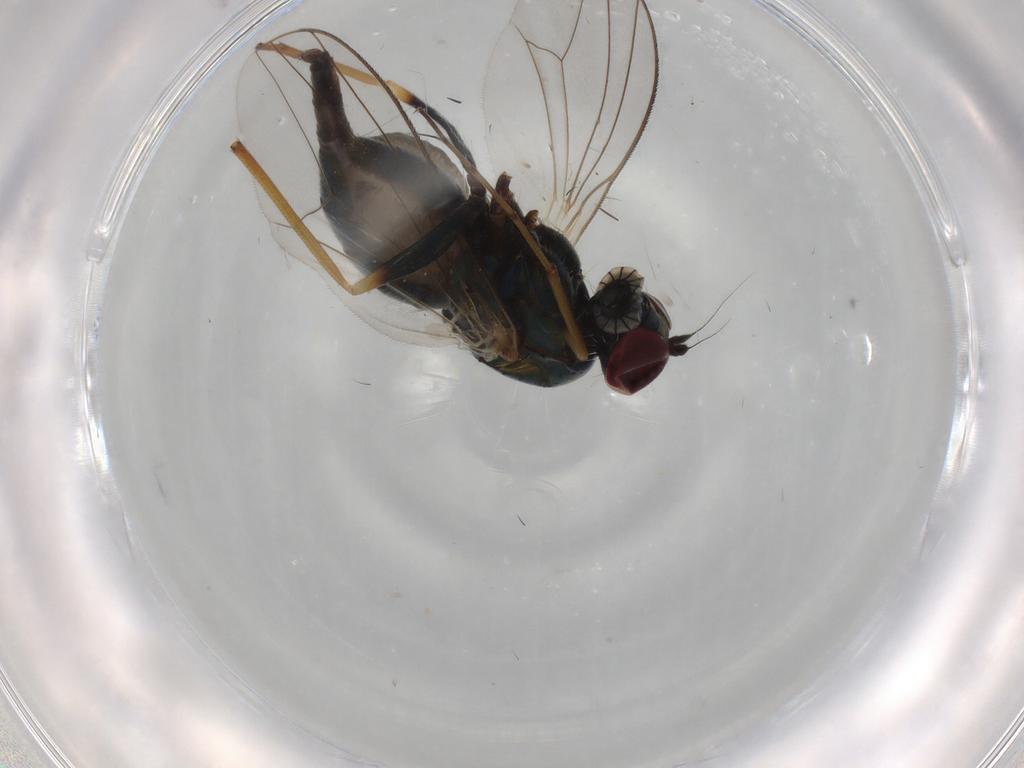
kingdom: Animalia
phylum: Arthropoda
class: Insecta
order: Diptera
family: Dolichopodidae
